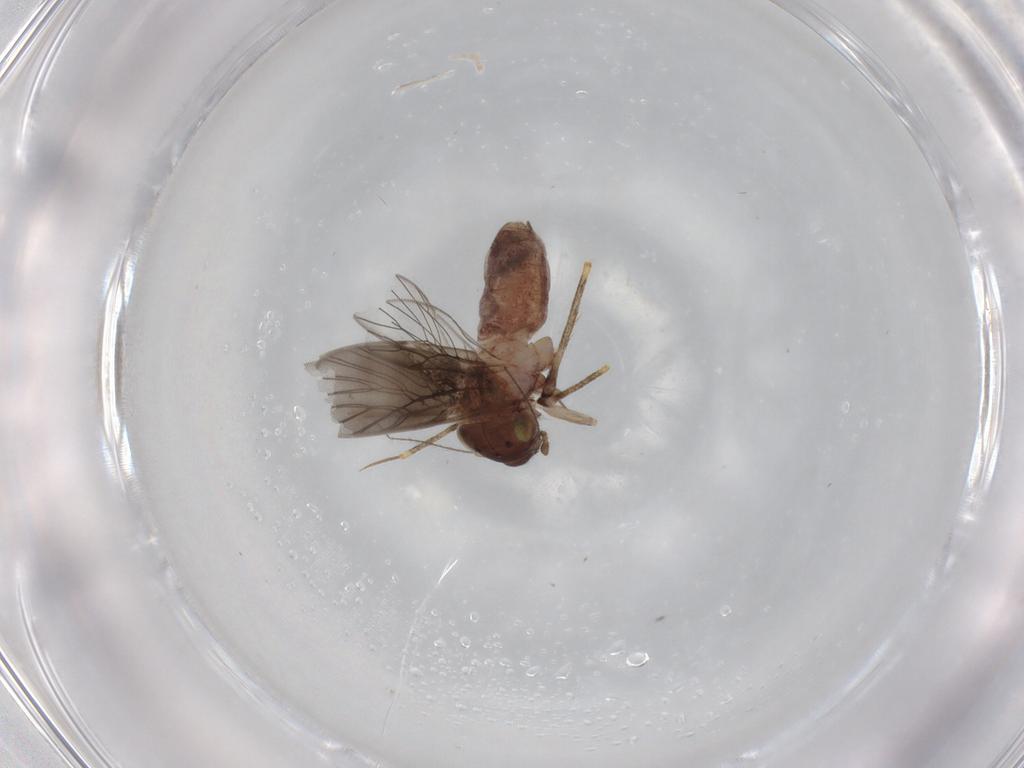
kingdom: Animalia
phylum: Arthropoda
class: Insecta
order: Psocodea
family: Lepidopsocidae
